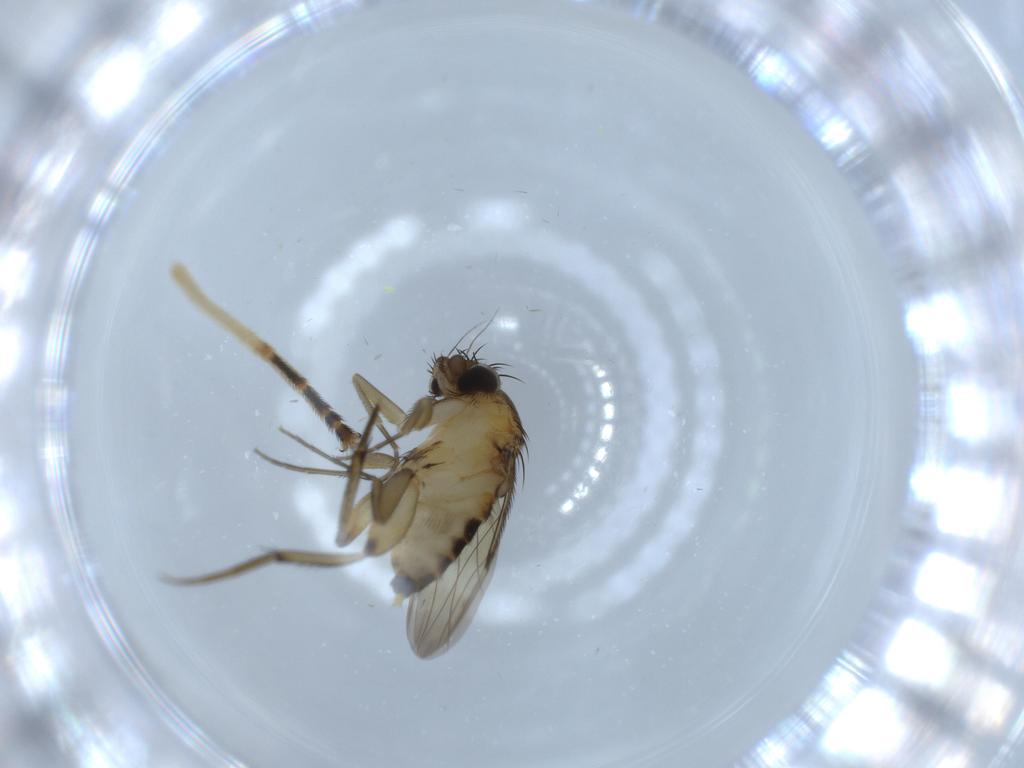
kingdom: Animalia
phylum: Arthropoda
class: Insecta
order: Diptera
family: Phoridae
